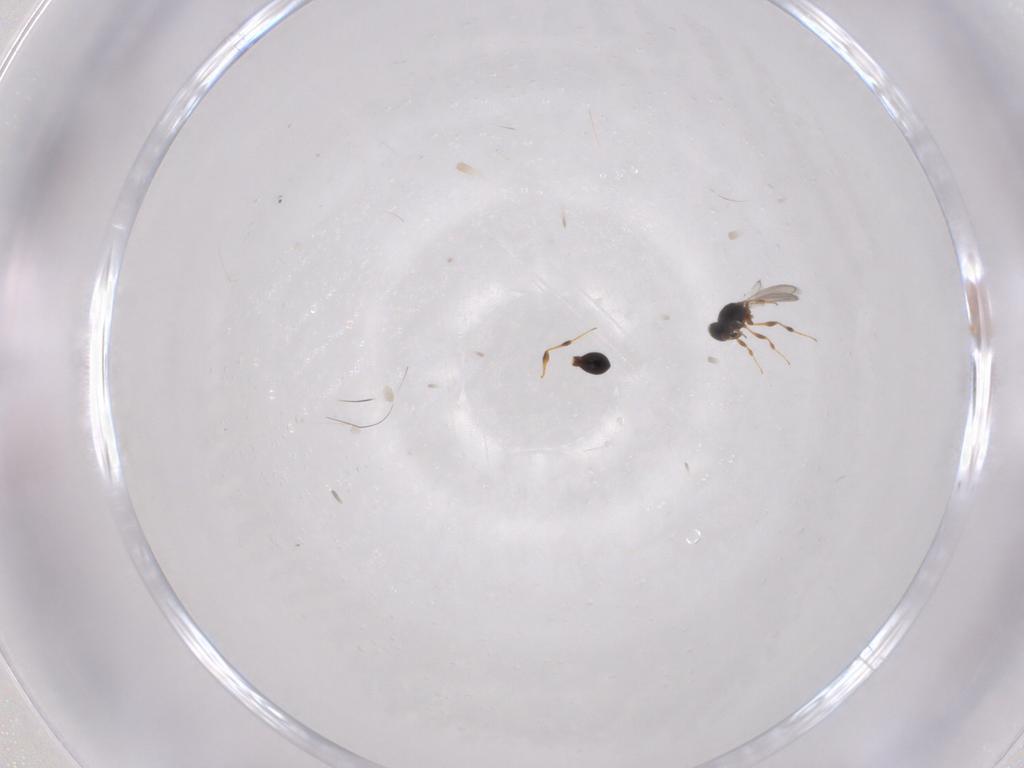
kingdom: Animalia
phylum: Arthropoda
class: Insecta
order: Hymenoptera
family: Platygastridae
